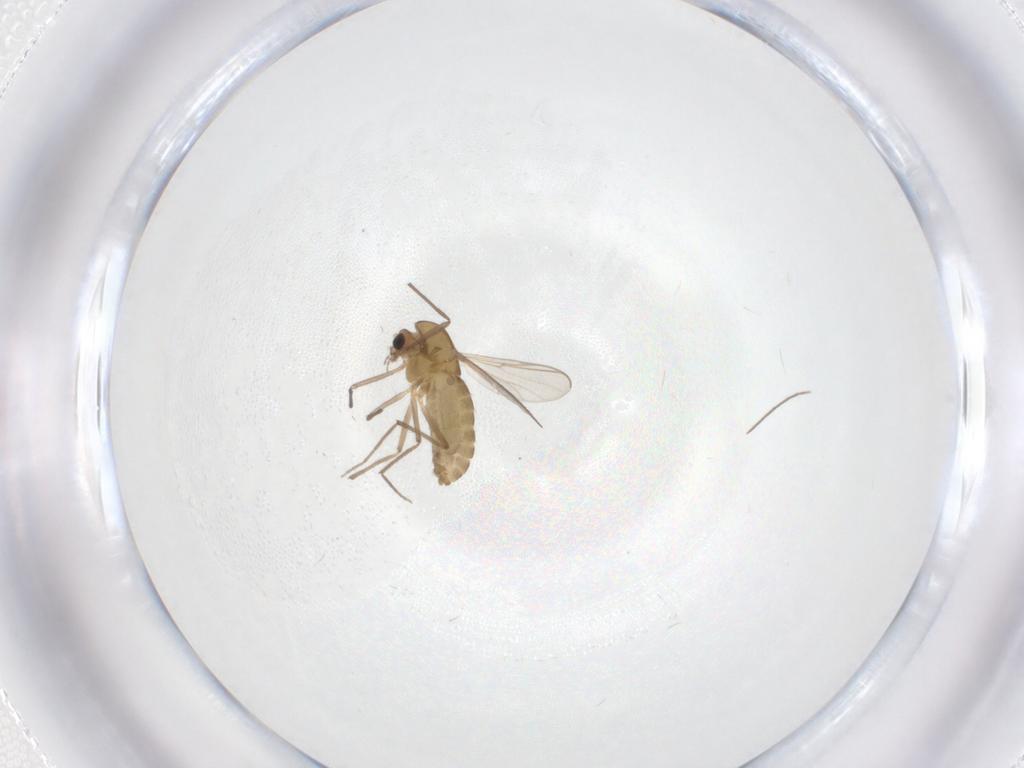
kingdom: Animalia
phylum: Arthropoda
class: Insecta
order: Diptera
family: Chironomidae
